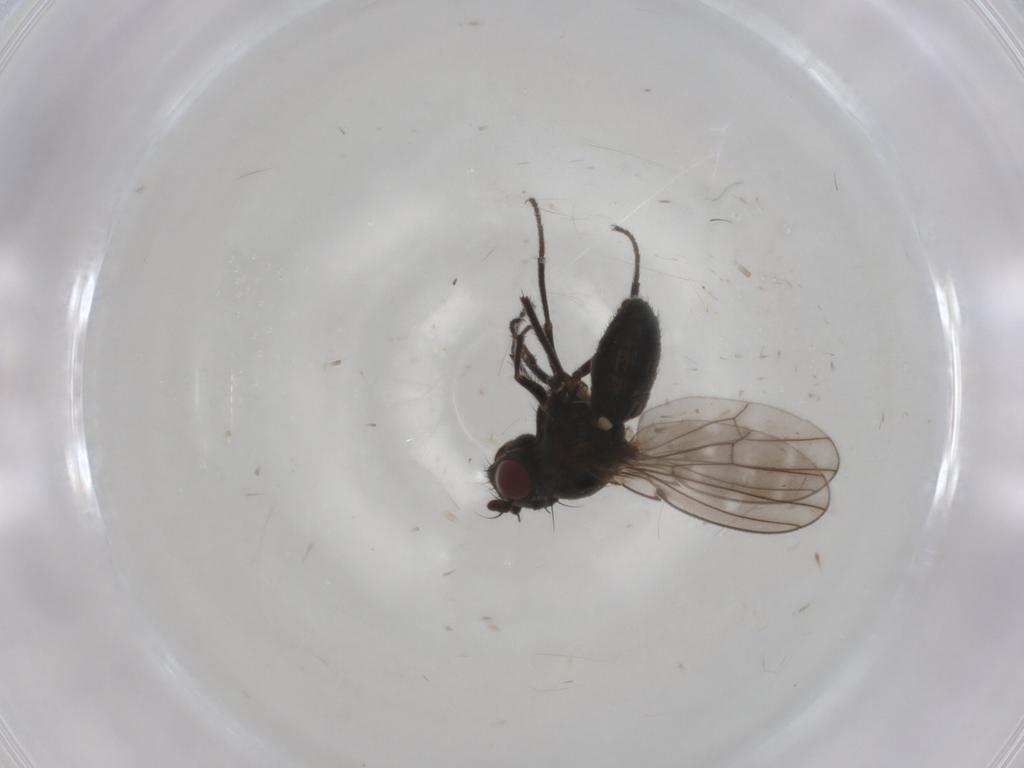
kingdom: Animalia
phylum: Arthropoda
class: Insecta
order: Diptera
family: Ephydridae
